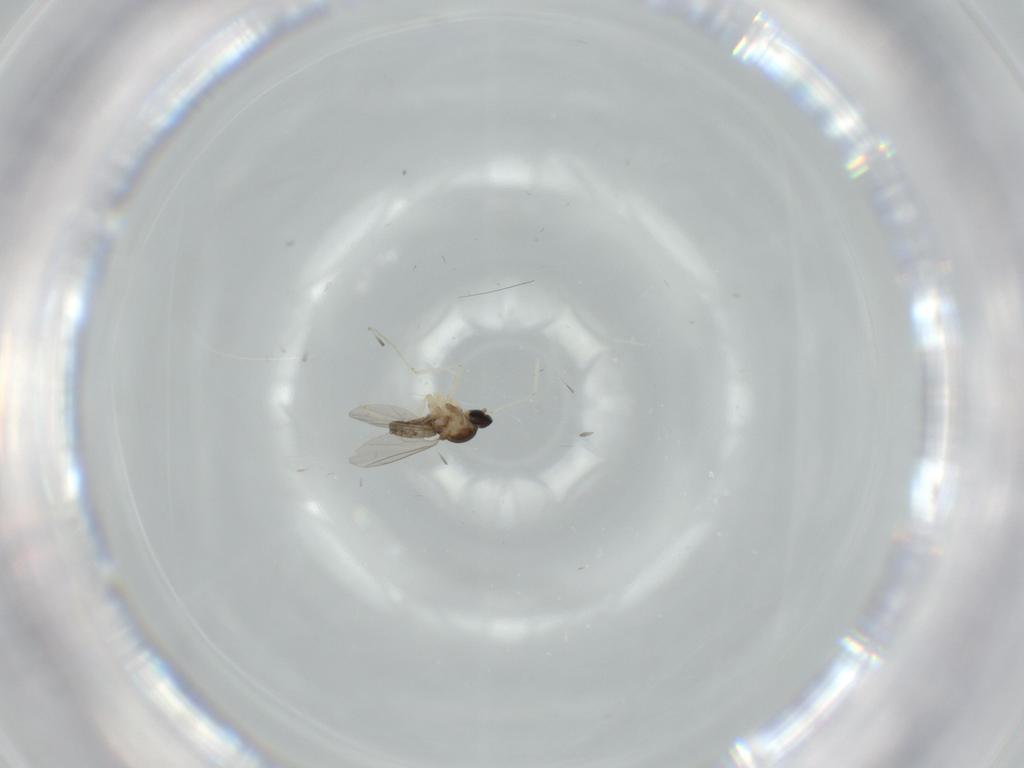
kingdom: Animalia
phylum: Arthropoda
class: Insecta
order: Diptera
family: Cecidomyiidae
